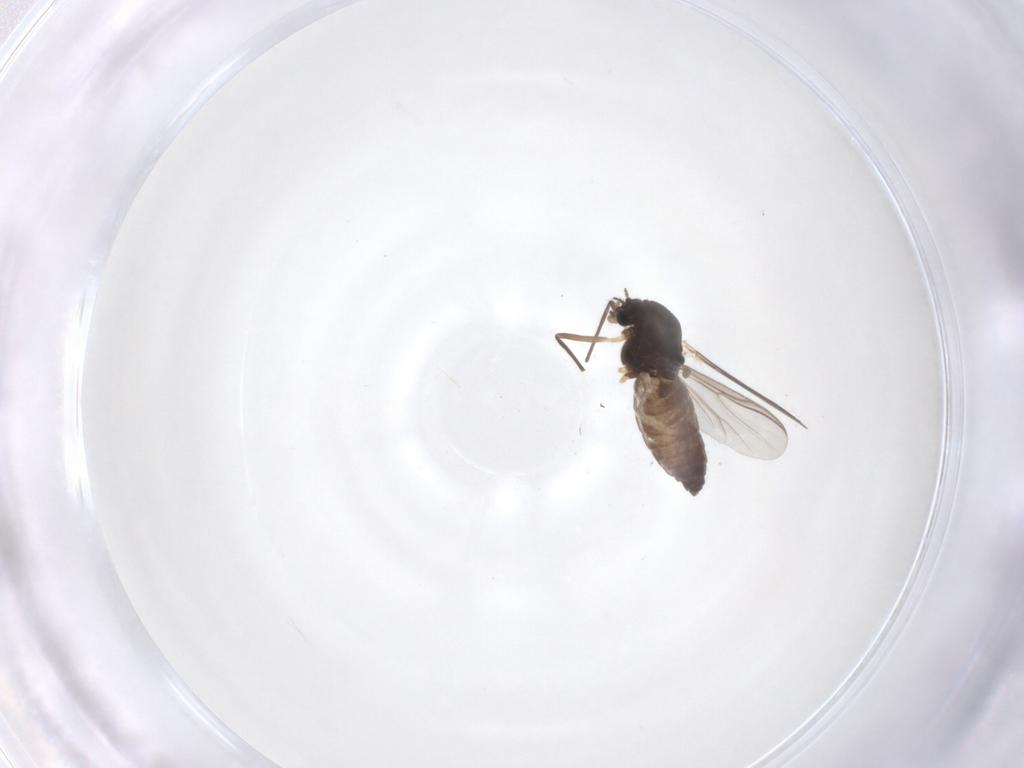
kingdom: Animalia
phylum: Arthropoda
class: Insecta
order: Diptera
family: Chironomidae
